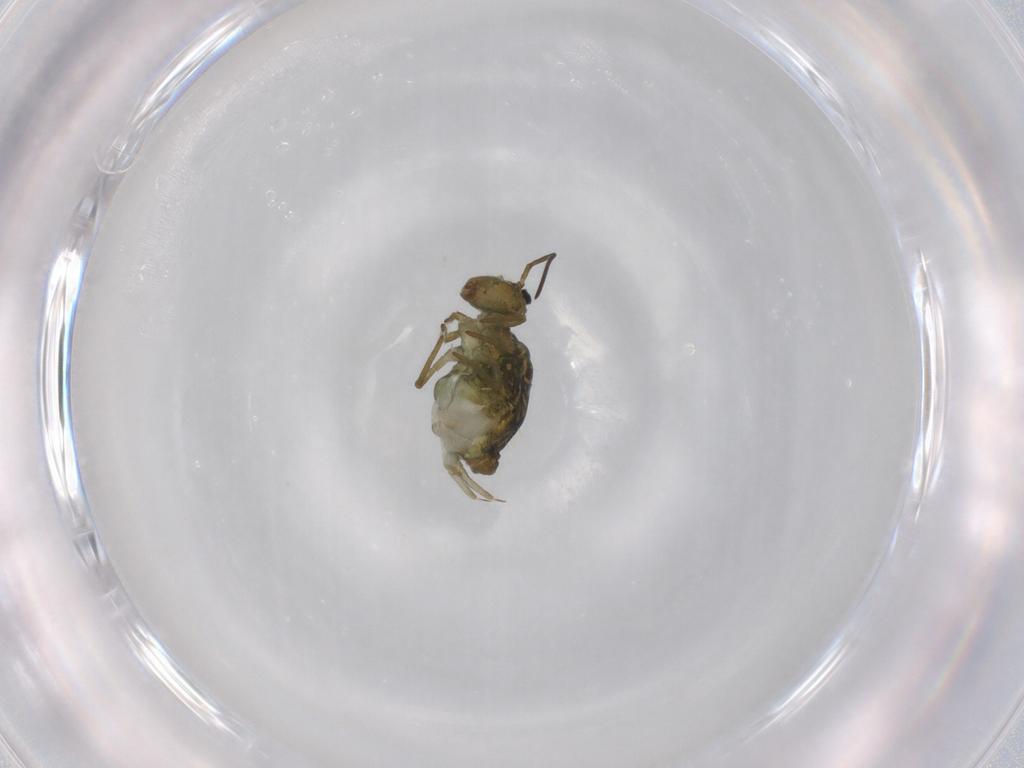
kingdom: Animalia
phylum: Arthropoda
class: Collembola
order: Symphypleona
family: Sminthuridae
